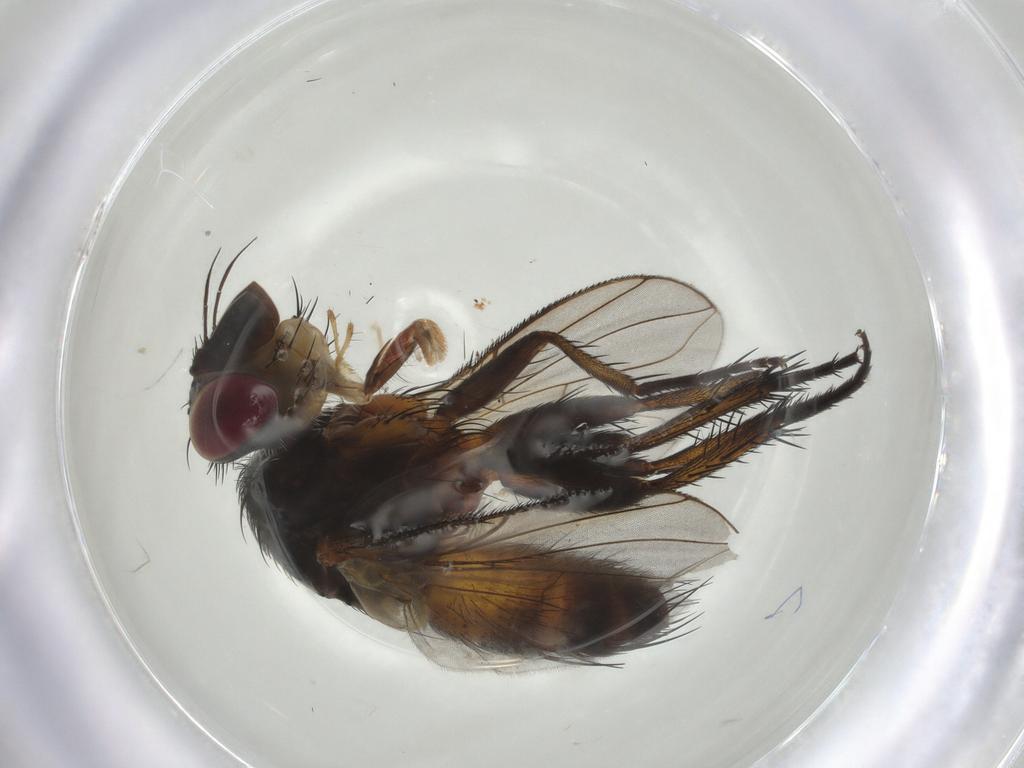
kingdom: Animalia
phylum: Arthropoda
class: Insecta
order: Diptera
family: Tachinidae
